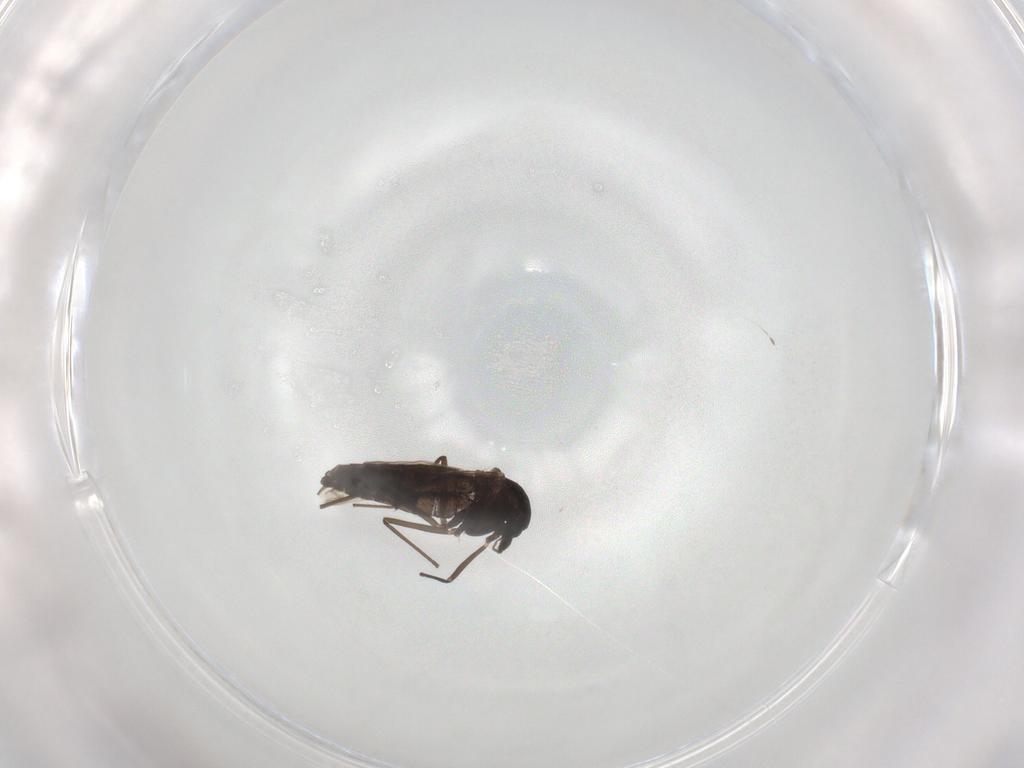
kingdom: Animalia
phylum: Arthropoda
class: Insecta
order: Diptera
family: Chironomidae
